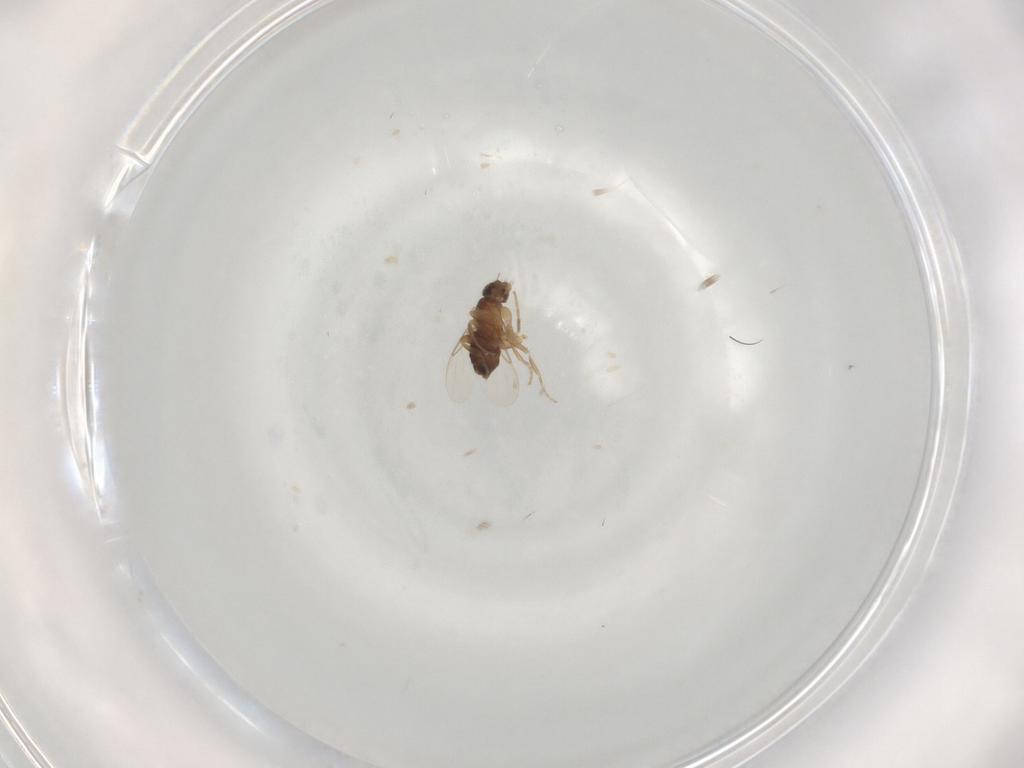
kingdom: Animalia
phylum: Arthropoda
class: Insecta
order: Diptera
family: Phoridae
